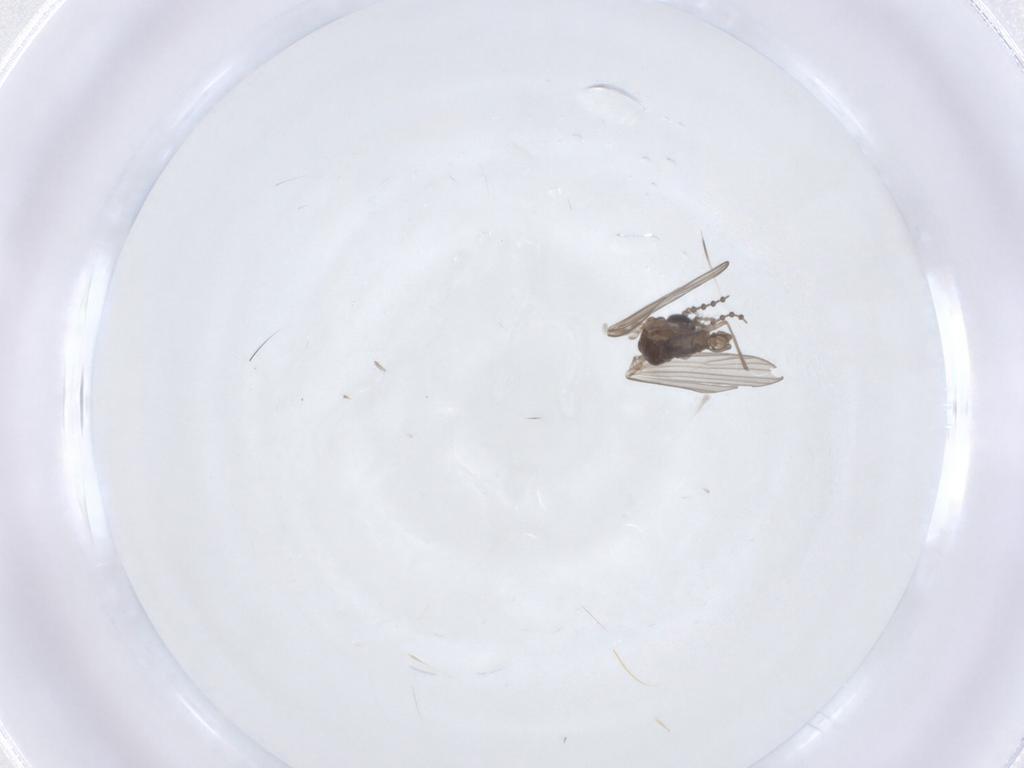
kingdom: Animalia
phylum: Arthropoda
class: Insecta
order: Diptera
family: Psychodidae
